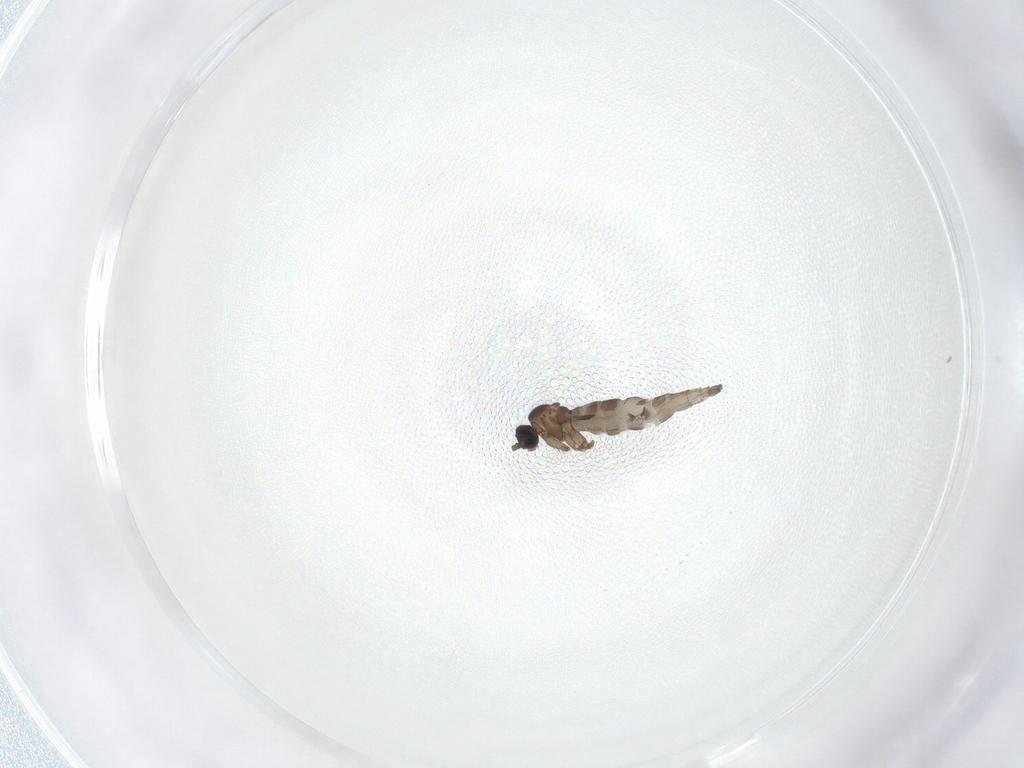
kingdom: Animalia
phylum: Arthropoda
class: Insecta
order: Diptera
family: Sciaridae
